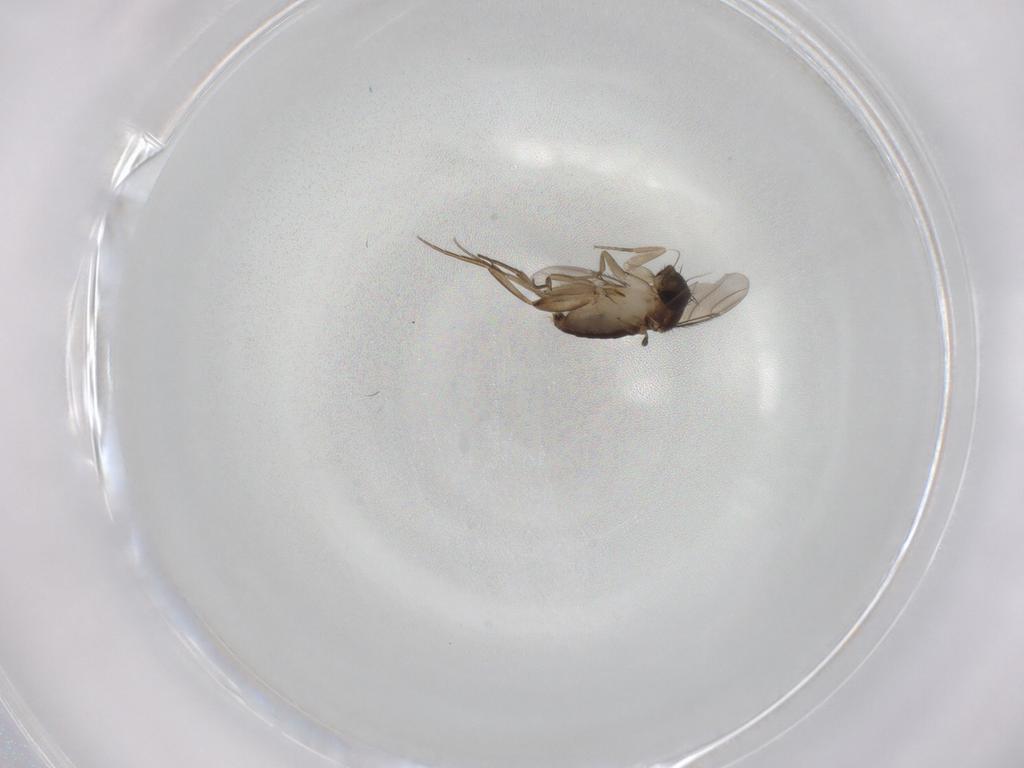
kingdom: Animalia
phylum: Arthropoda
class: Insecta
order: Diptera
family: Phoridae
